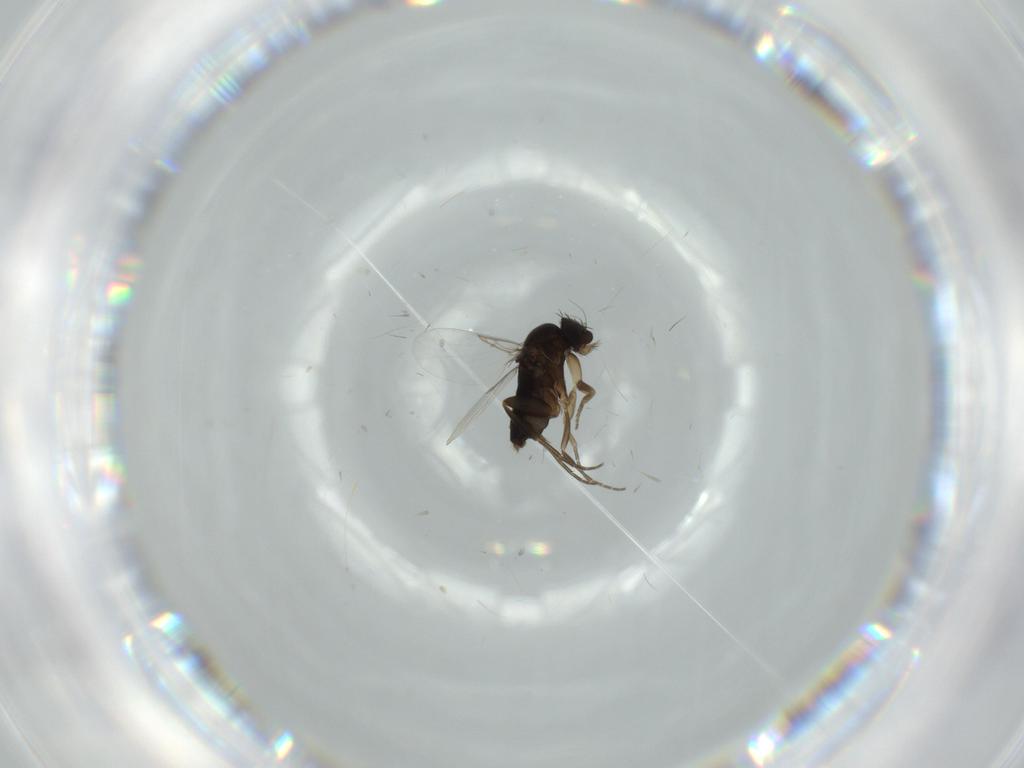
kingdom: Animalia
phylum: Arthropoda
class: Insecta
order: Diptera
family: Phoridae
